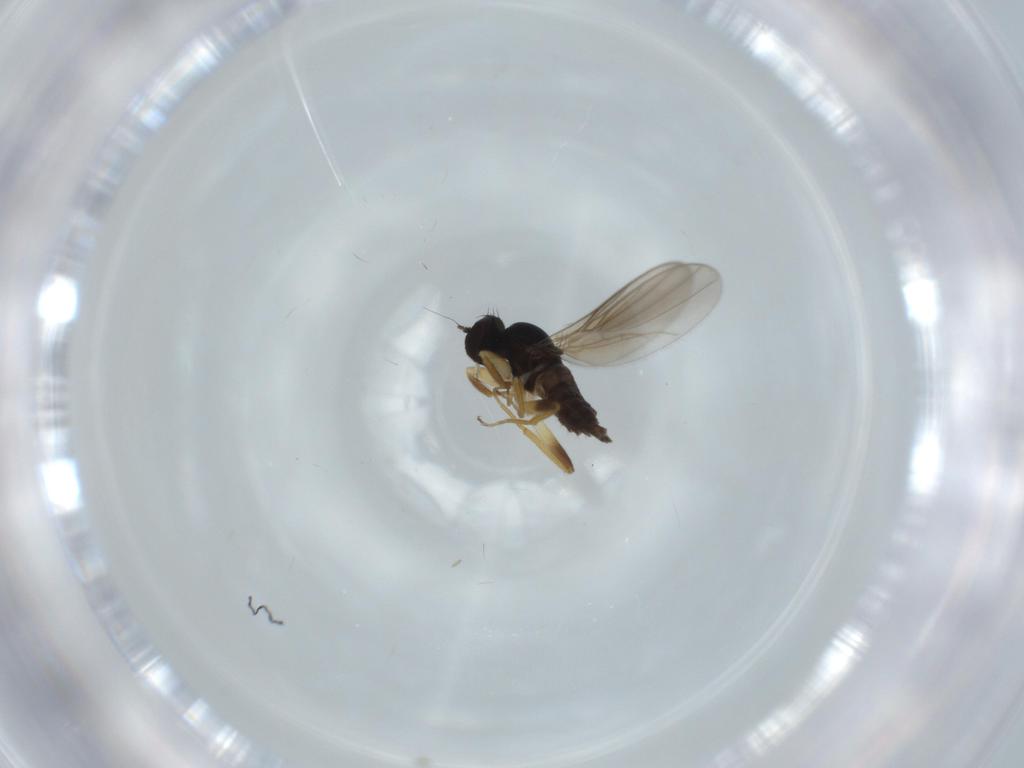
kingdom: Animalia
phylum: Arthropoda
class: Insecta
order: Diptera
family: Hybotidae
